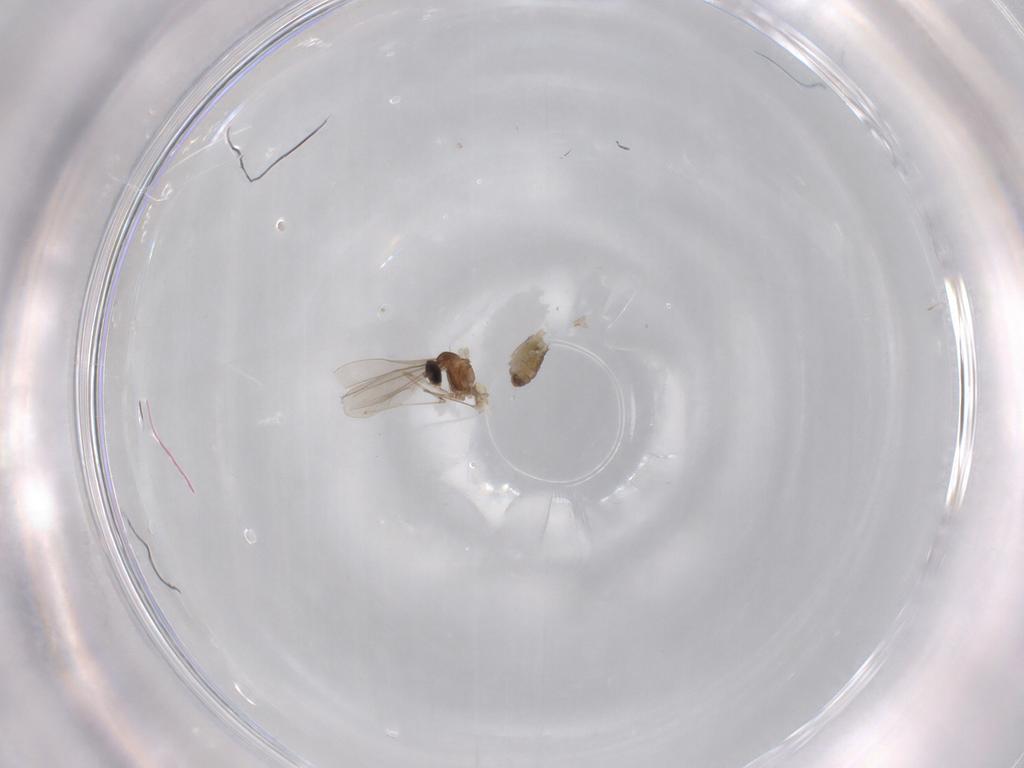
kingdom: Animalia
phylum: Arthropoda
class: Insecta
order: Diptera
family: Cecidomyiidae
